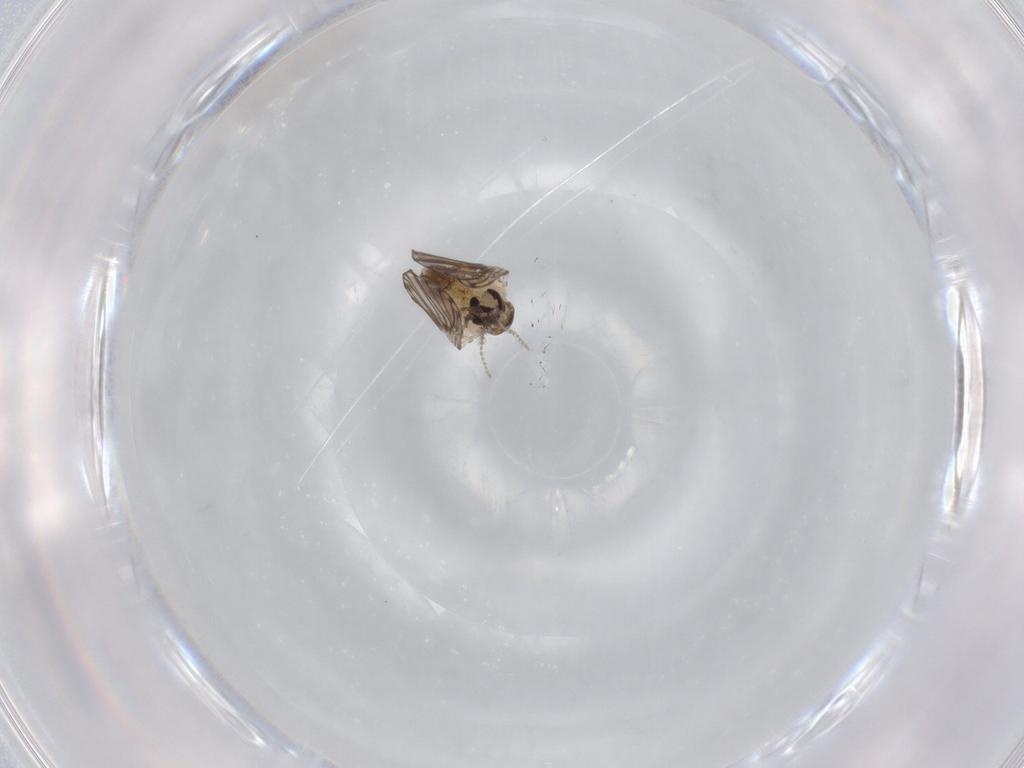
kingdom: Animalia
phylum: Arthropoda
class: Insecta
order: Diptera
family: Psychodidae
